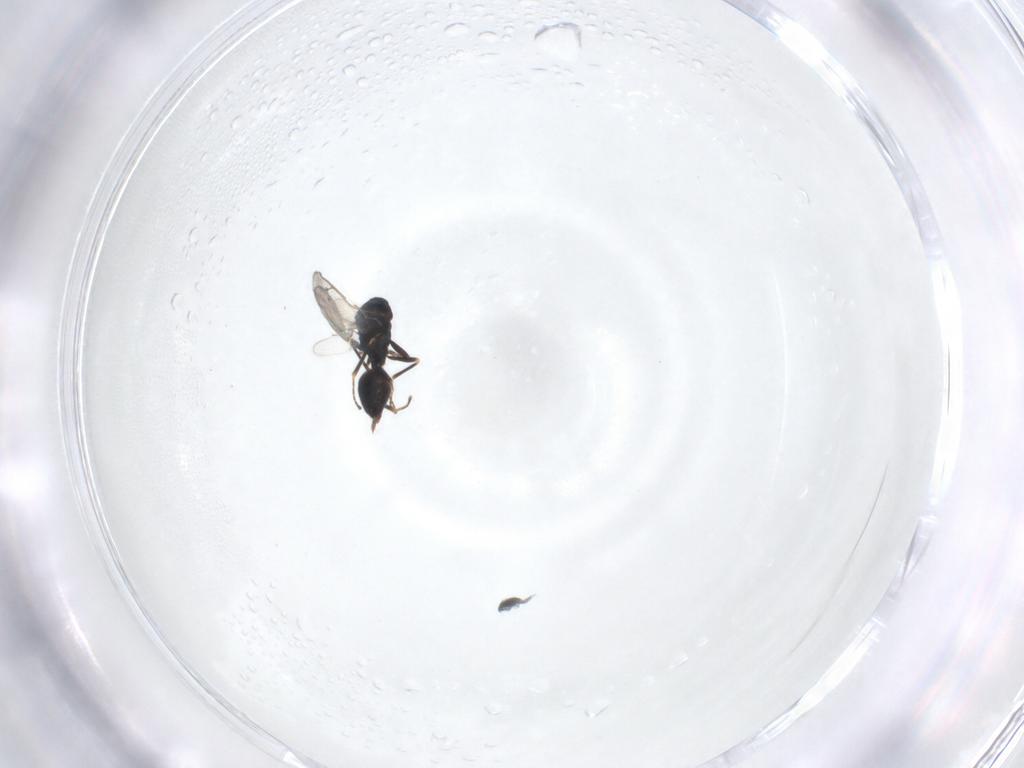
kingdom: Animalia
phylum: Arthropoda
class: Insecta
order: Hymenoptera
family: Pteromalidae
